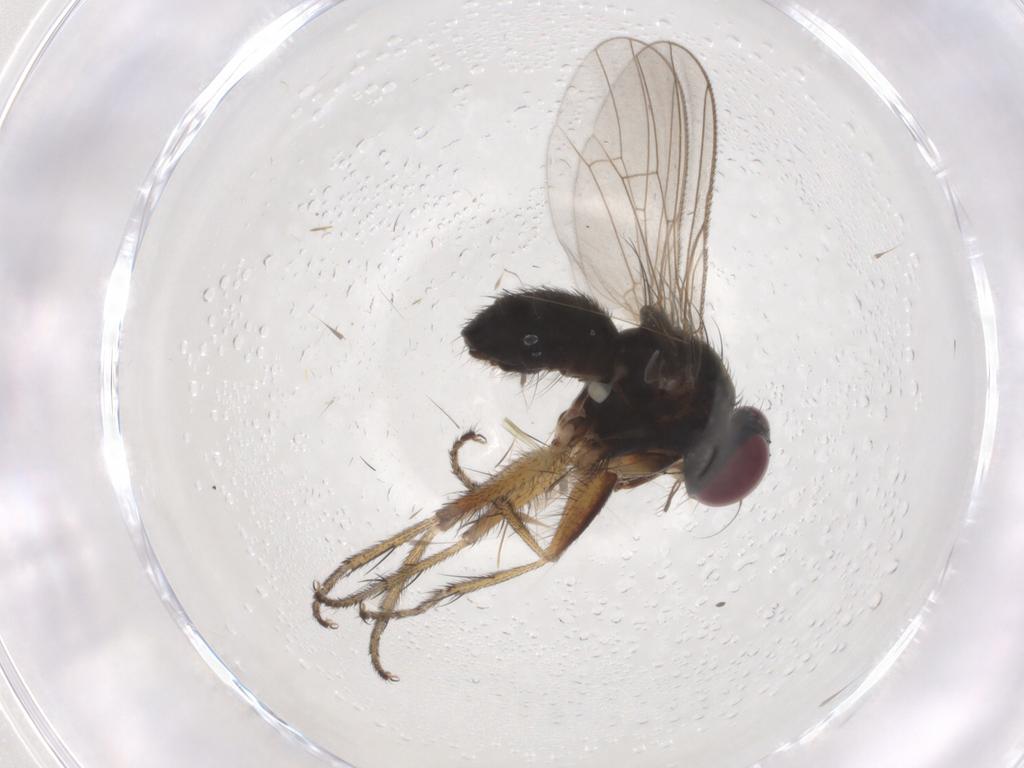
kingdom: Animalia
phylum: Arthropoda
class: Insecta
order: Diptera
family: Muscidae
